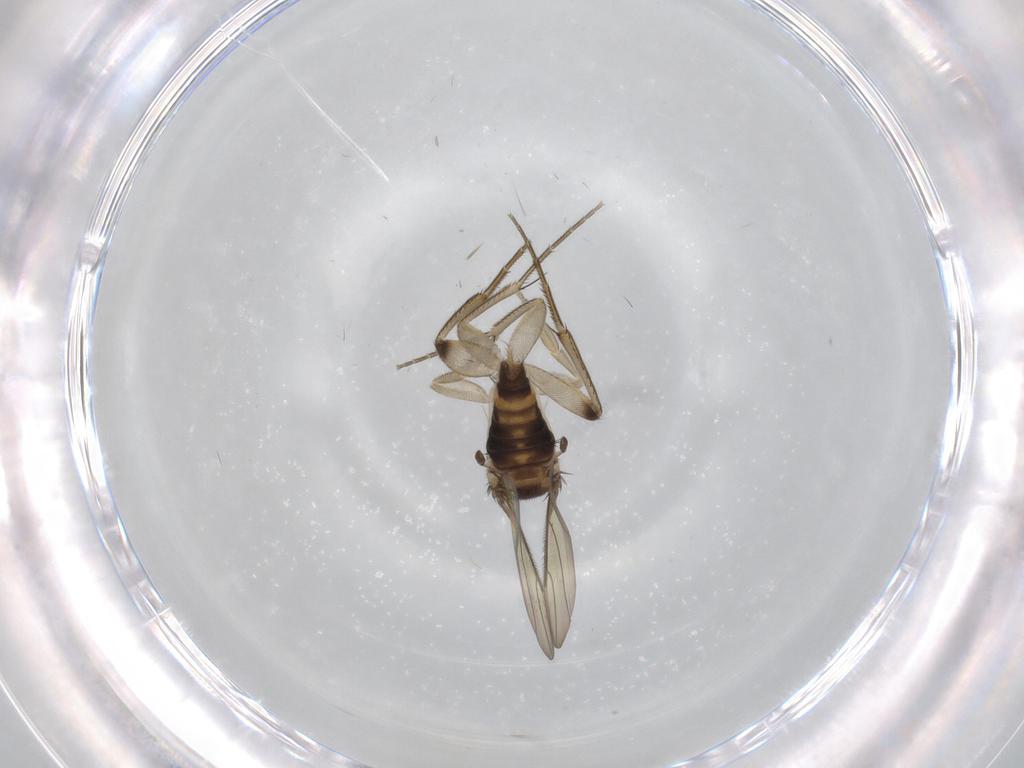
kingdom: Animalia
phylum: Arthropoda
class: Insecta
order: Diptera
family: Phoridae
